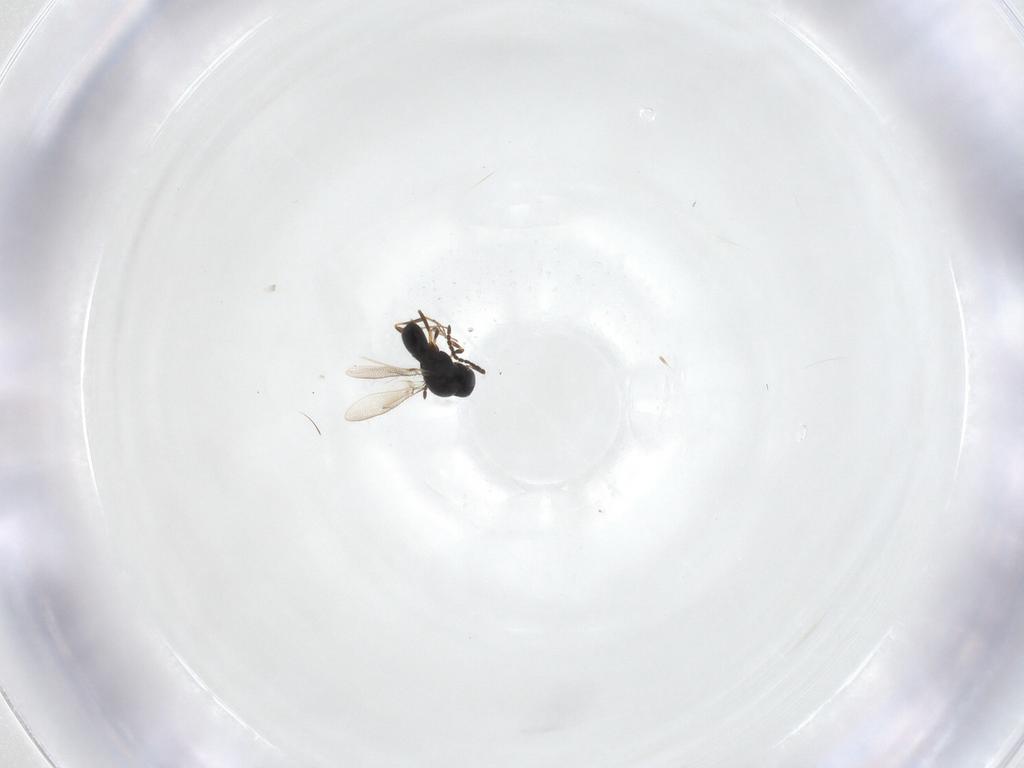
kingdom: Animalia
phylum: Arthropoda
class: Insecta
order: Hymenoptera
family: Scelionidae
